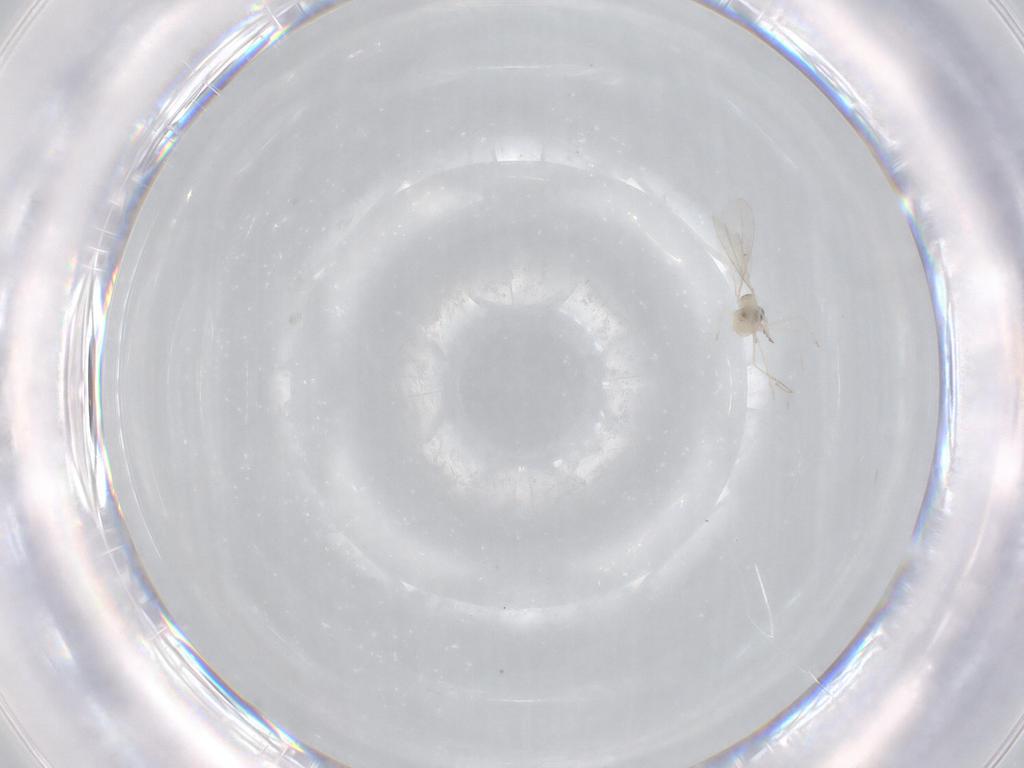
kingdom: Animalia
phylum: Arthropoda
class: Insecta
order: Diptera
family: Cecidomyiidae
